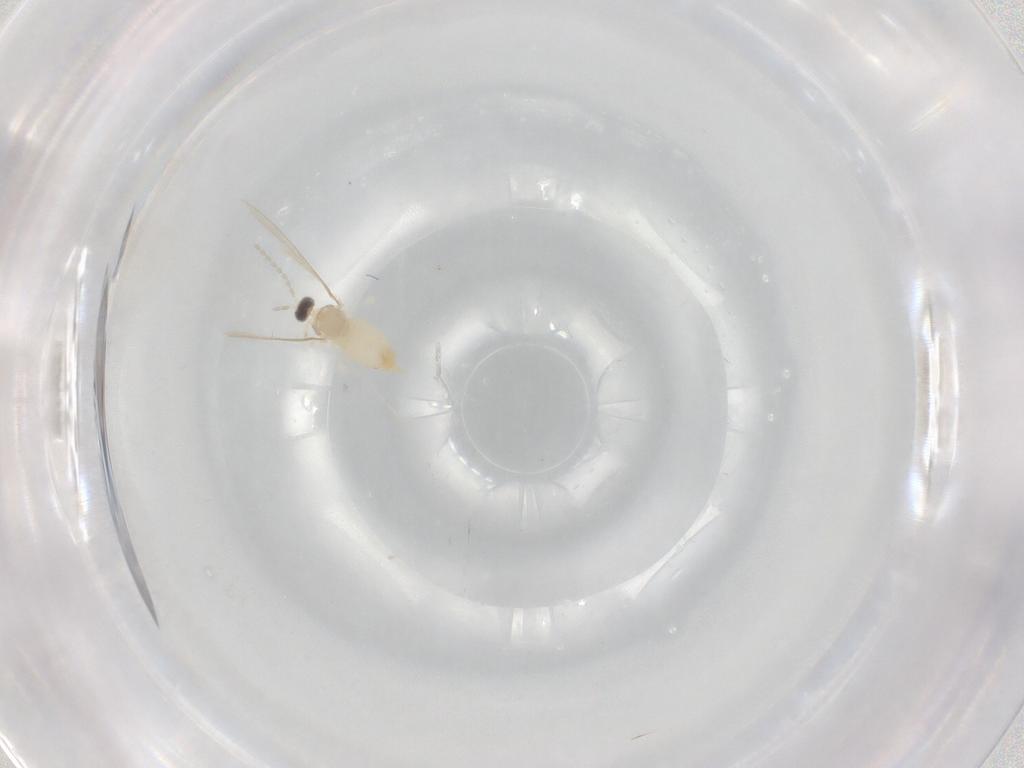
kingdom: Animalia
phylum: Arthropoda
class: Insecta
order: Diptera
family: Cecidomyiidae
